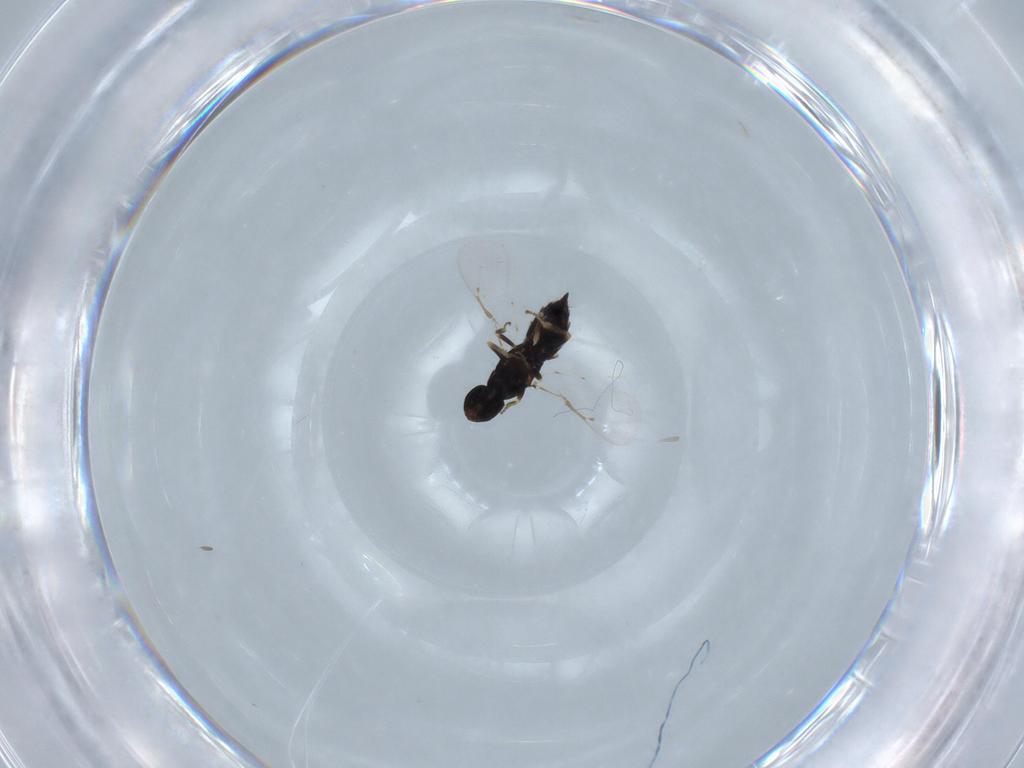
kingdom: Animalia
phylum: Arthropoda
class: Insecta
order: Hymenoptera
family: Eulophidae
